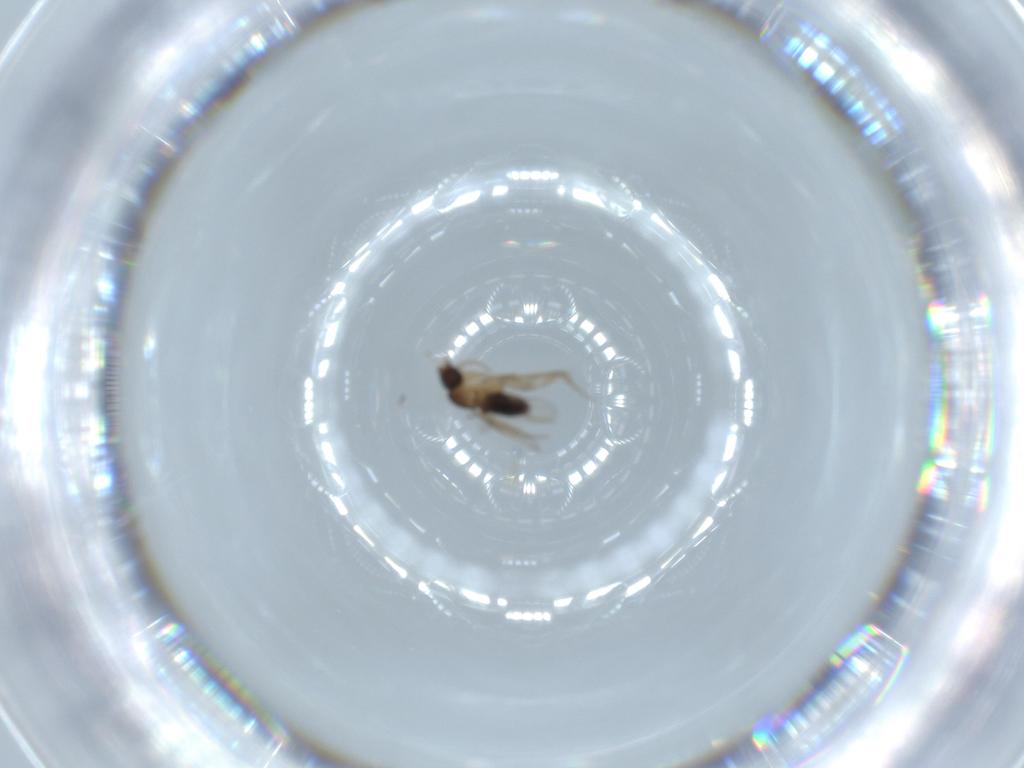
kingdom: Animalia
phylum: Arthropoda
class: Insecta
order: Diptera
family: Phoridae
